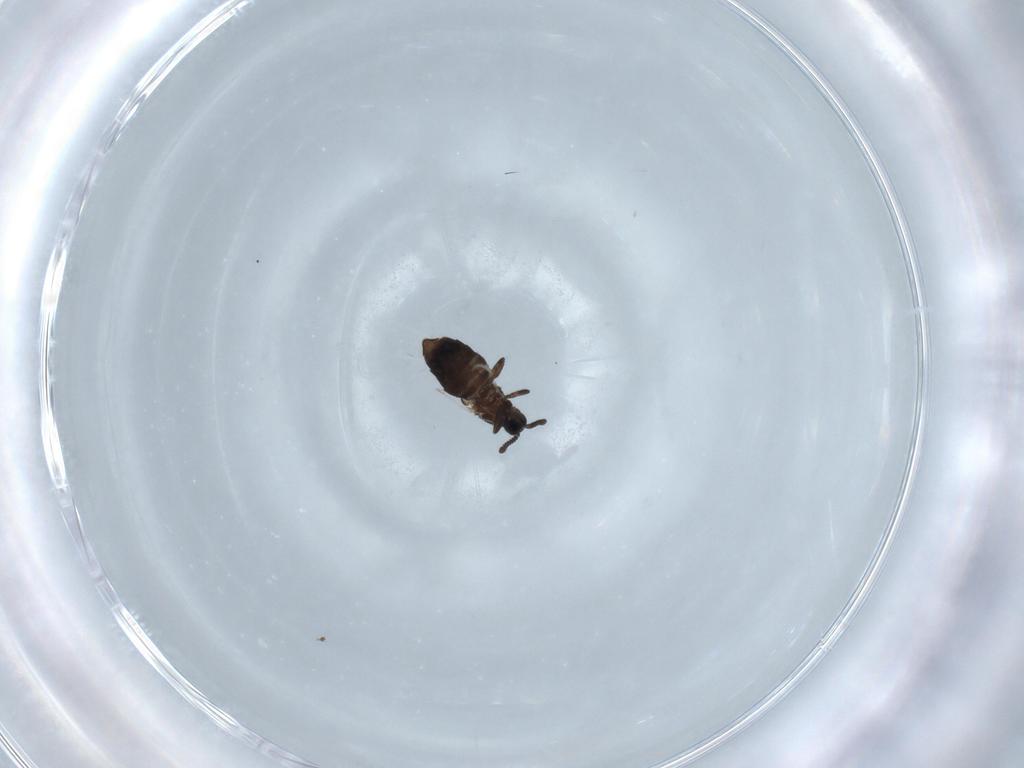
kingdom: Animalia
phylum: Arthropoda
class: Insecta
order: Diptera
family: Scatopsidae
